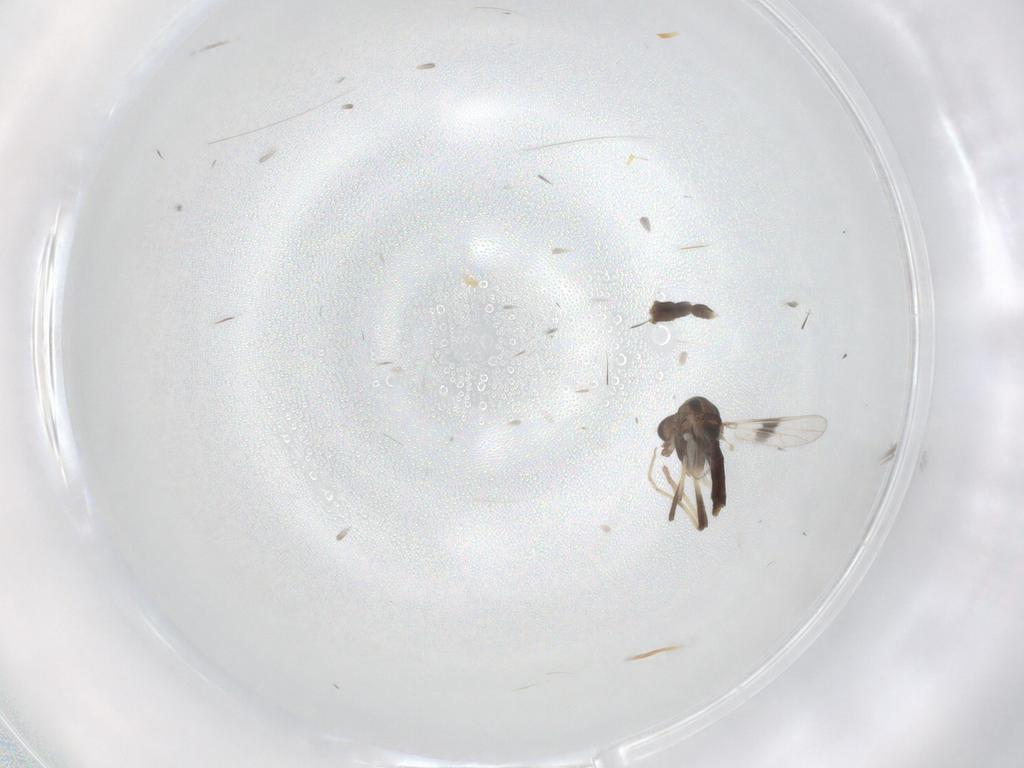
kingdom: Animalia
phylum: Arthropoda
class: Insecta
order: Diptera
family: Chironomidae
